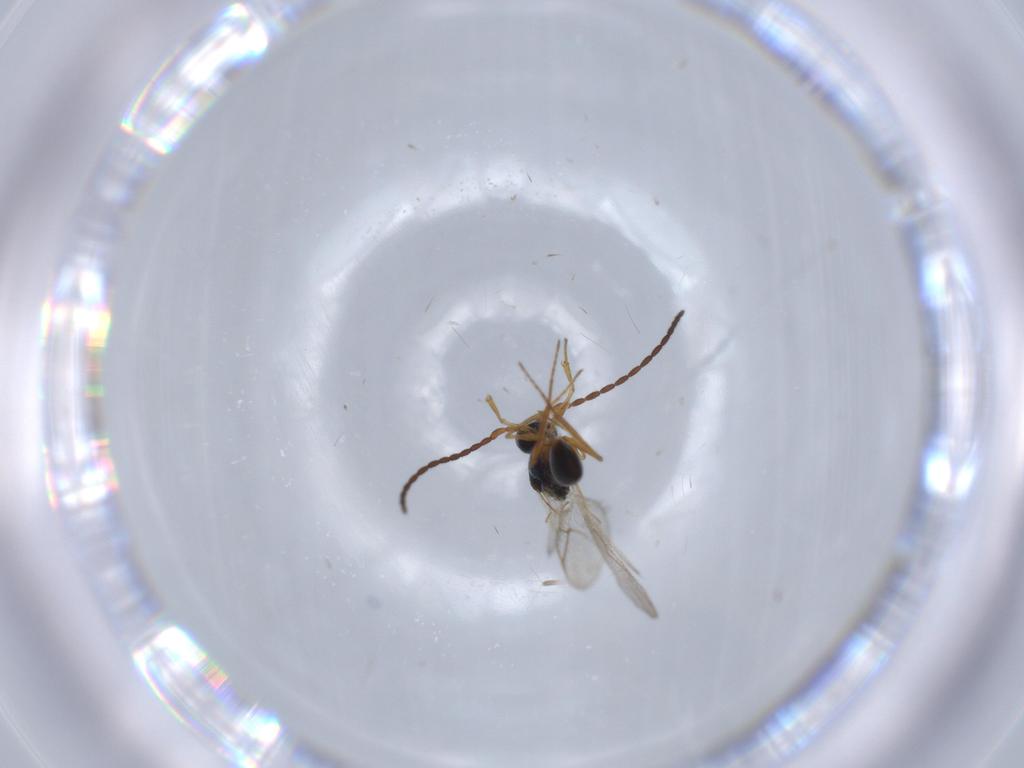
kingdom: Animalia
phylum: Arthropoda
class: Insecta
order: Hymenoptera
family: Figitidae
